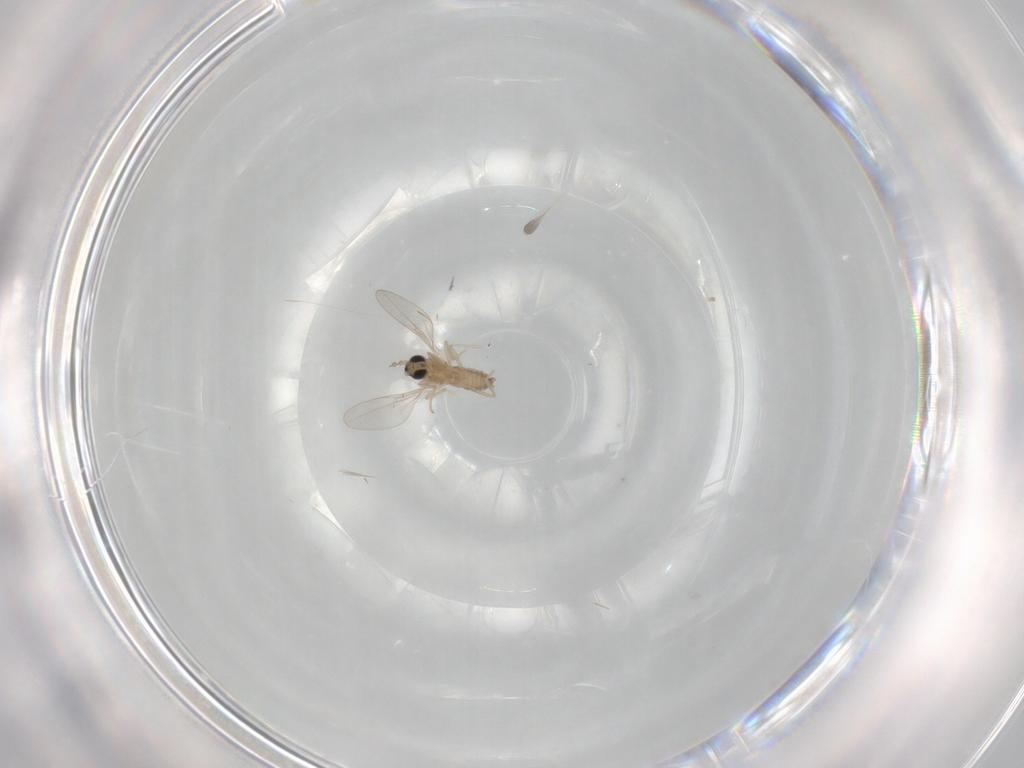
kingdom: Animalia
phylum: Arthropoda
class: Insecta
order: Diptera
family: Cecidomyiidae
